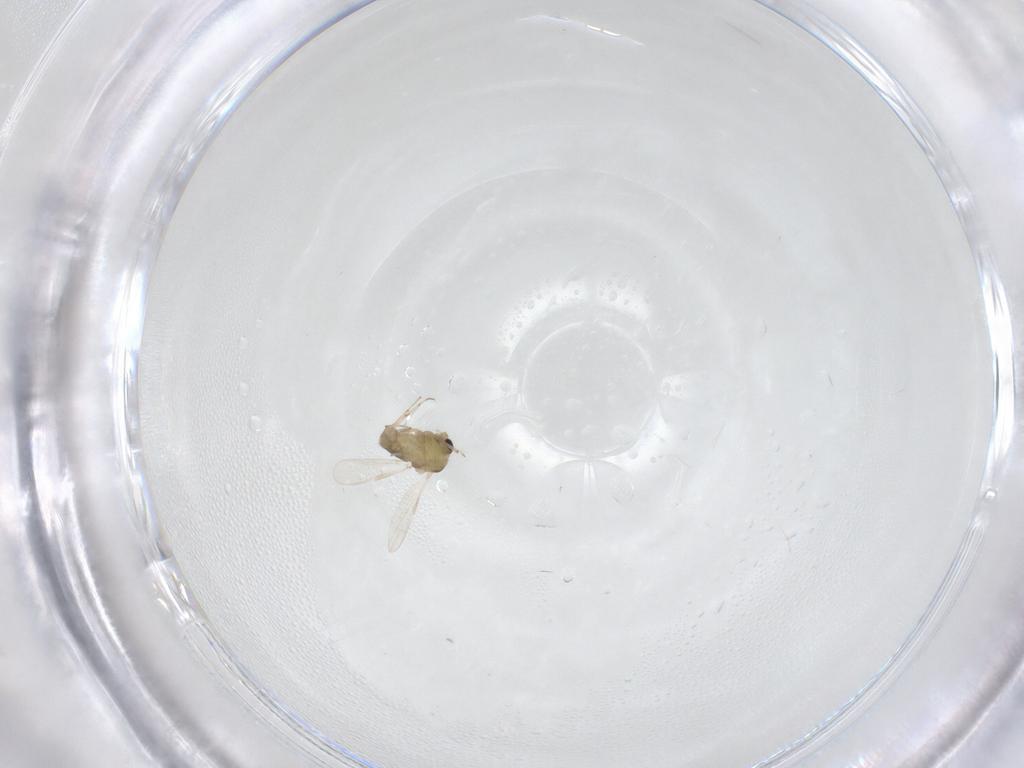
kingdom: Animalia
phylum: Arthropoda
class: Insecta
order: Diptera
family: Chironomidae
